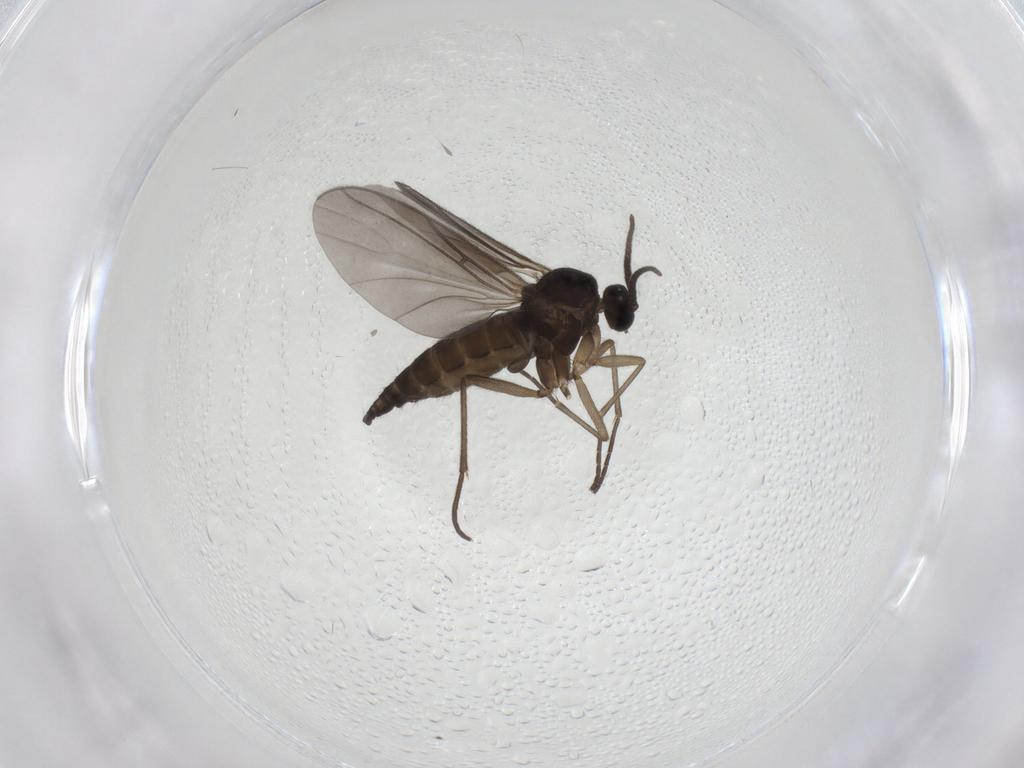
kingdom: Animalia
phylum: Arthropoda
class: Insecta
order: Diptera
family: Sciaridae
